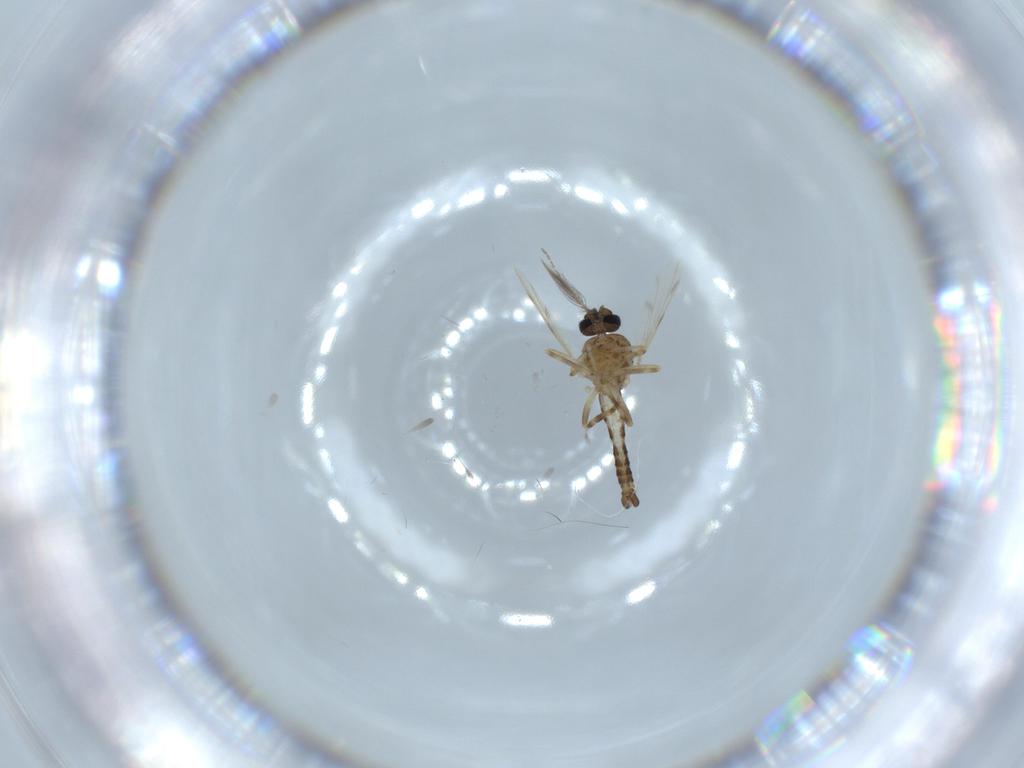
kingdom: Animalia
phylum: Arthropoda
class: Insecta
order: Diptera
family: Ceratopogonidae
